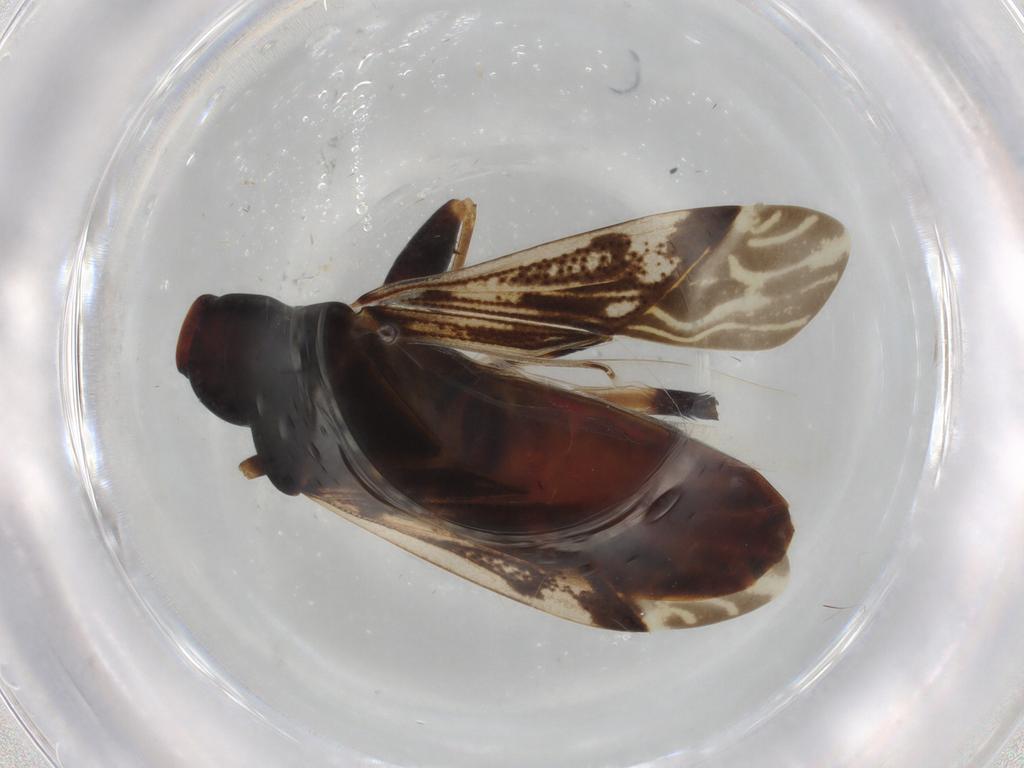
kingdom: Animalia
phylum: Arthropoda
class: Insecta
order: Hemiptera
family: Rhyparochromidae
